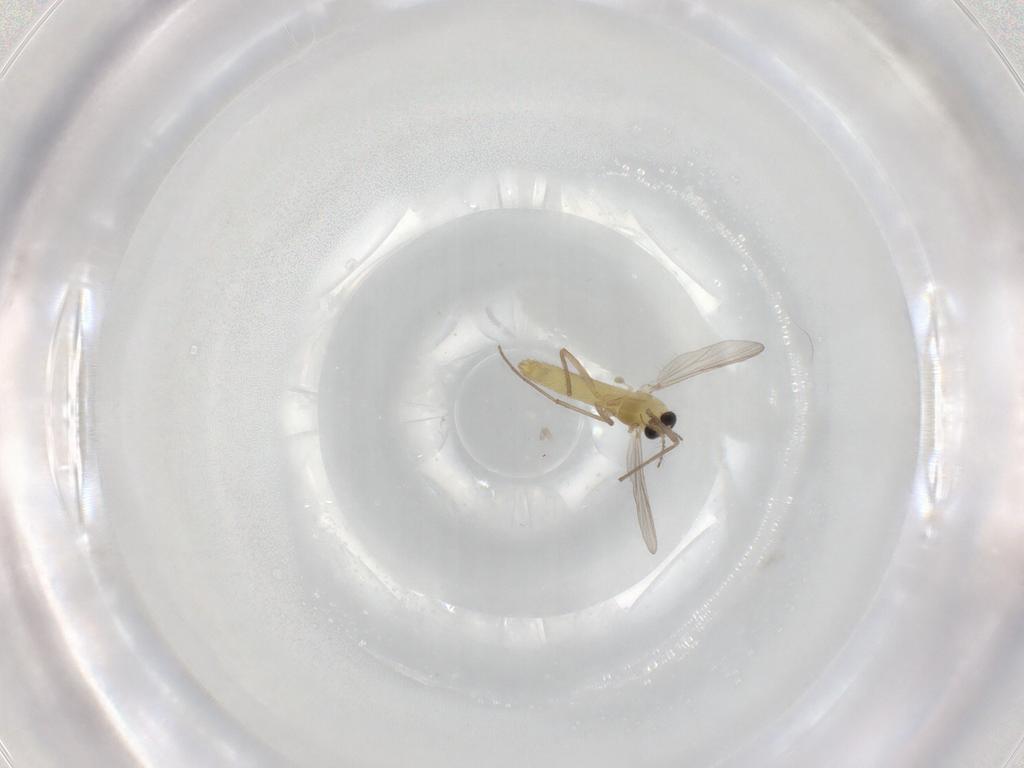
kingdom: Animalia
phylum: Arthropoda
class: Insecta
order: Diptera
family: Chironomidae
